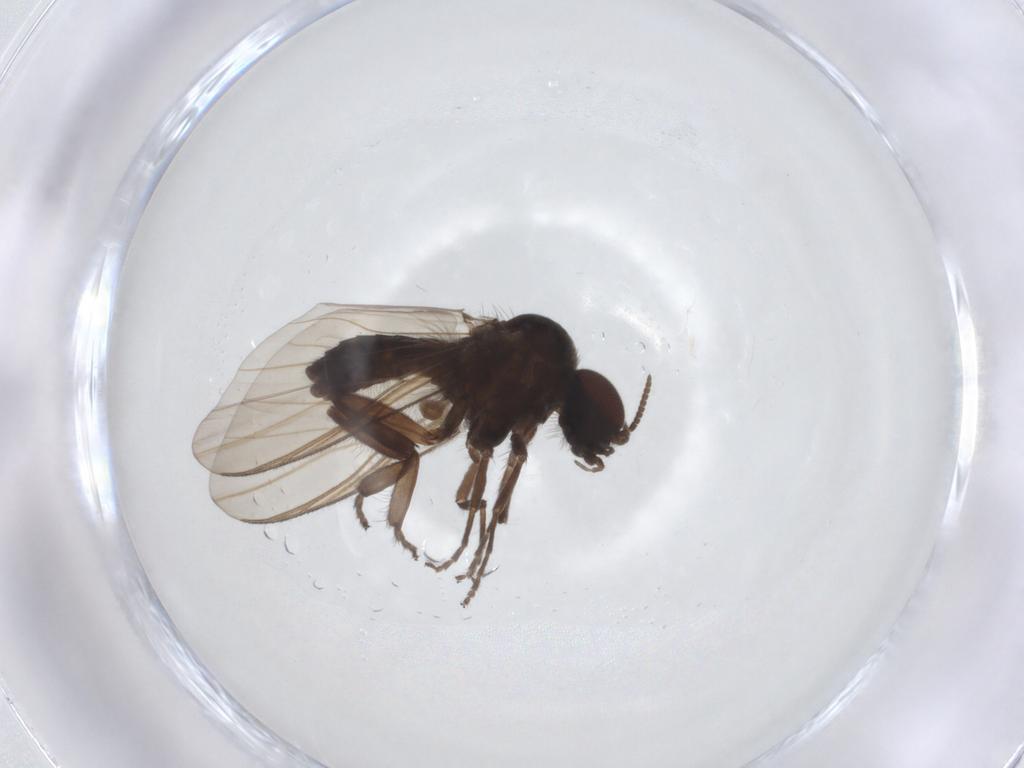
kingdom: Animalia
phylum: Arthropoda
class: Insecta
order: Diptera
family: Simuliidae
